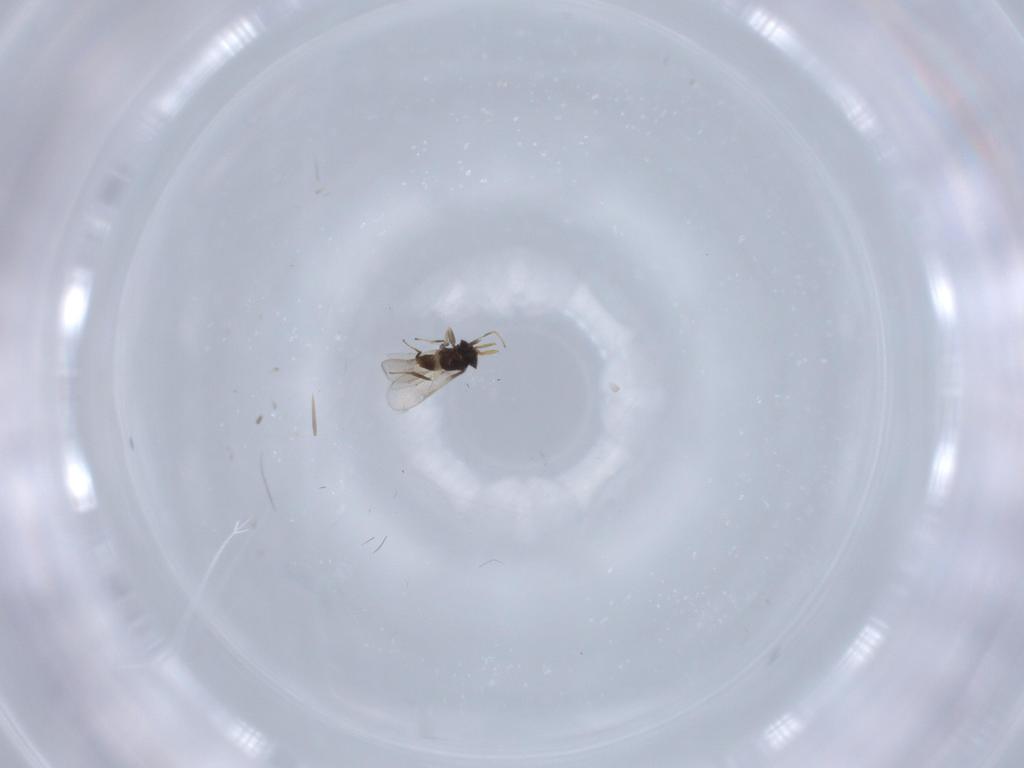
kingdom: Animalia
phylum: Arthropoda
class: Insecta
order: Hymenoptera
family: Aphelinidae
